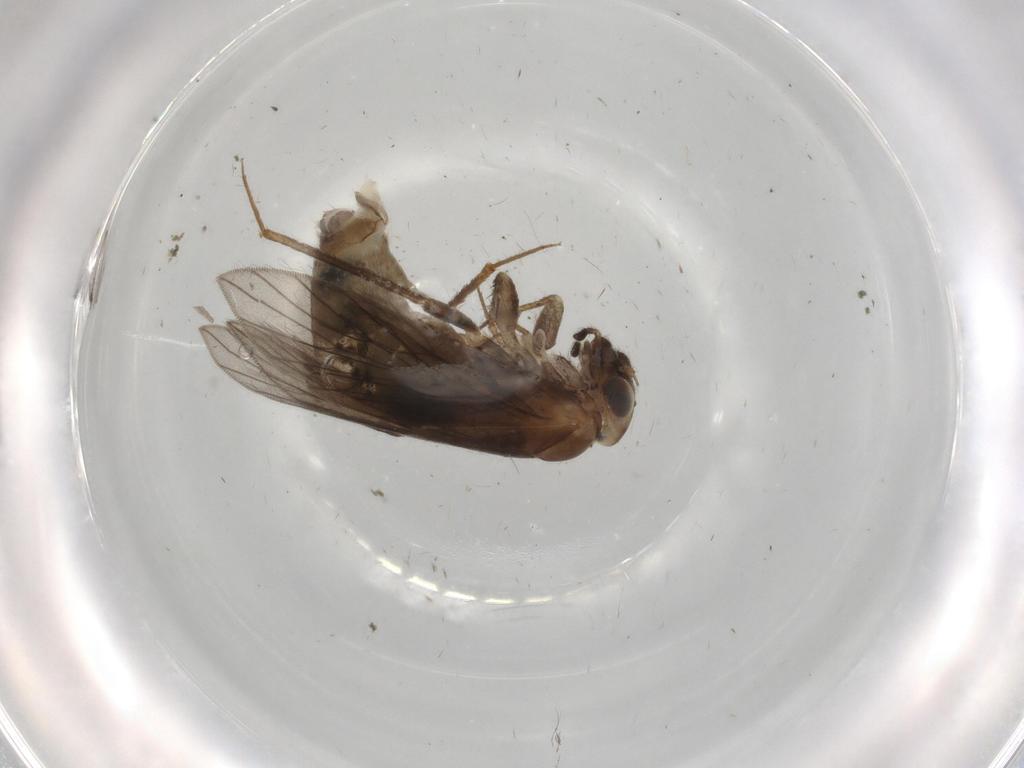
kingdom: Animalia
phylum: Arthropoda
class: Insecta
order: Psocodea
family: Lepidopsocidae
